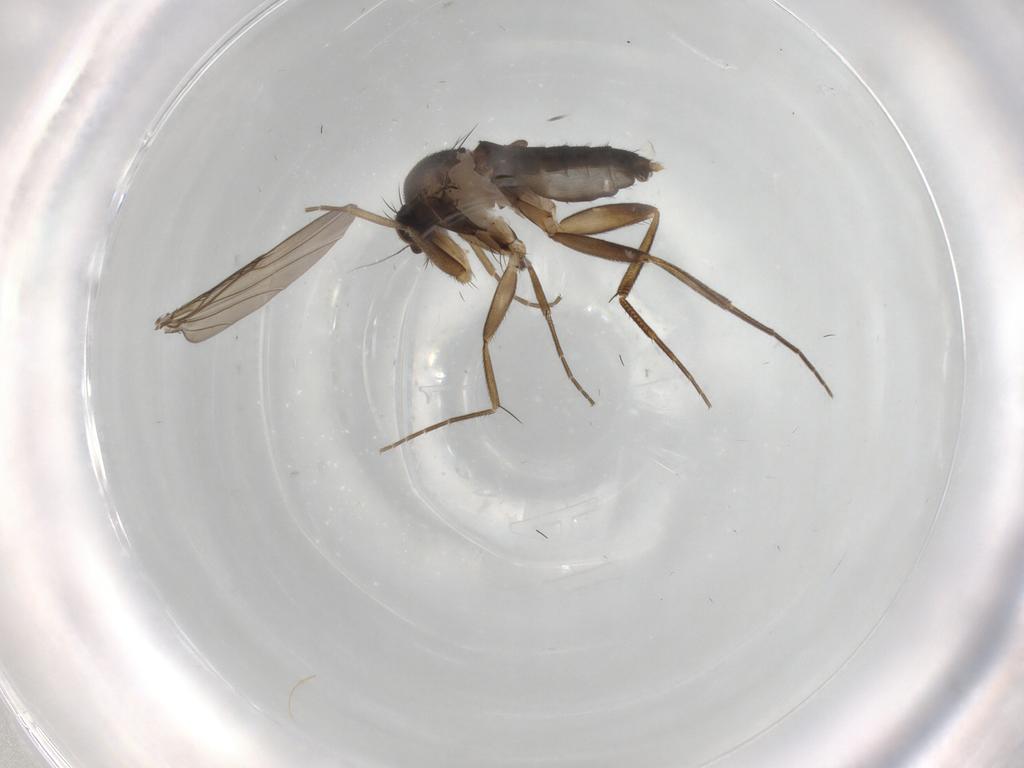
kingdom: Animalia
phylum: Arthropoda
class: Insecta
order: Diptera
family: Phoridae
